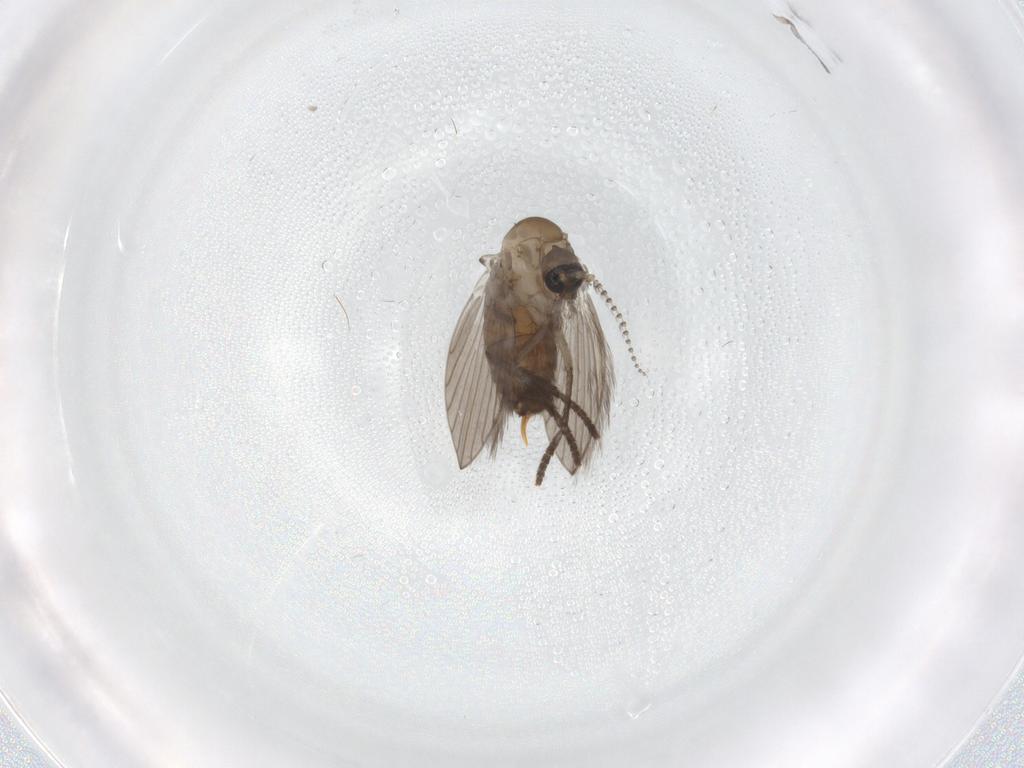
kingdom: Animalia
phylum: Arthropoda
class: Insecta
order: Diptera
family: Psychodidae
